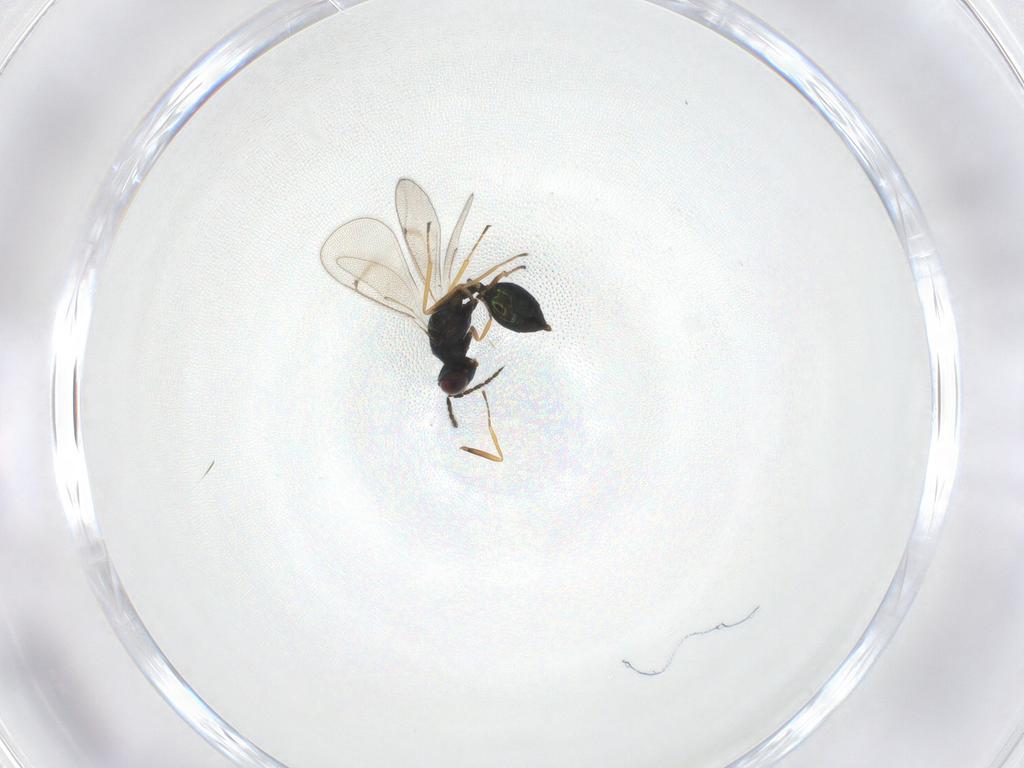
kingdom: Animalia
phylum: Arthropoda
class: Insecta
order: Hymenoptera
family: Eulophidae
